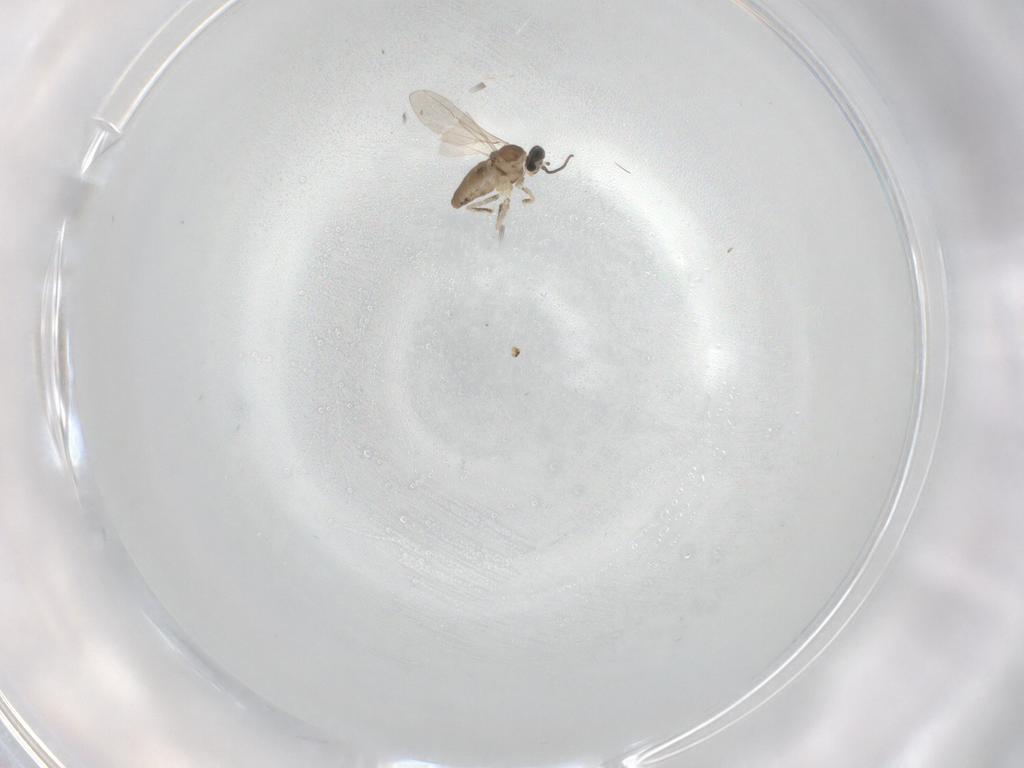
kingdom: Animalia
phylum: Arthropoda
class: Insecta
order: Diptera
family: Cecidomyiidae
